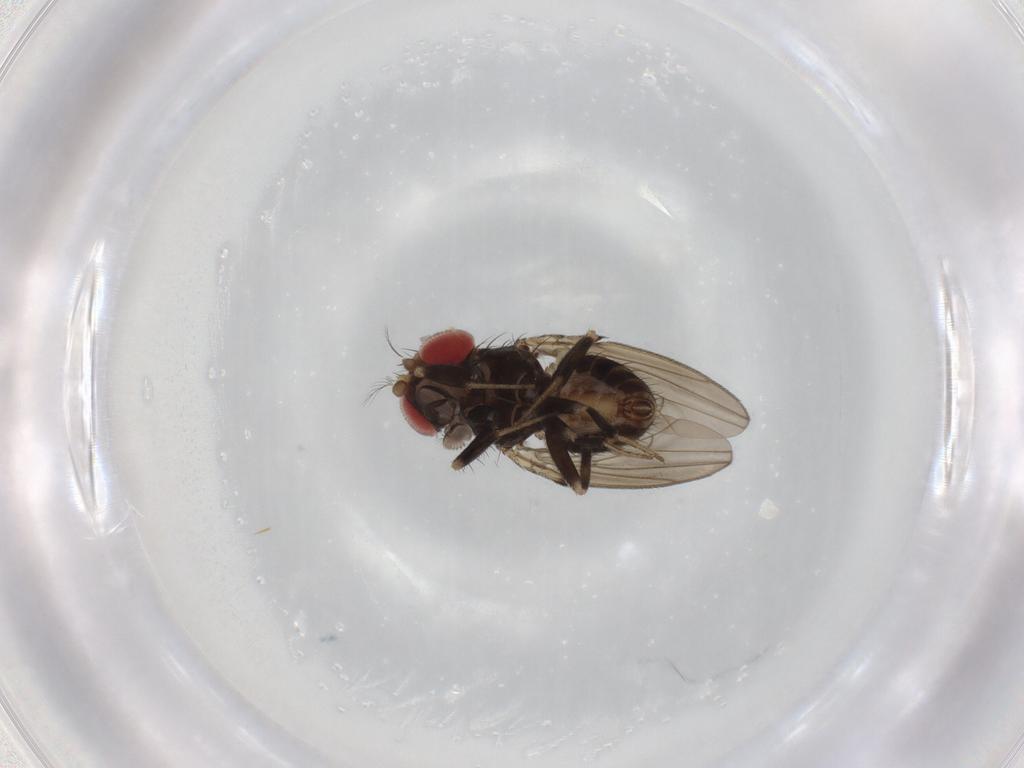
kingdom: Animalia
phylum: Arthropoda
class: Insecta
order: Diptera
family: Drosophilidae
